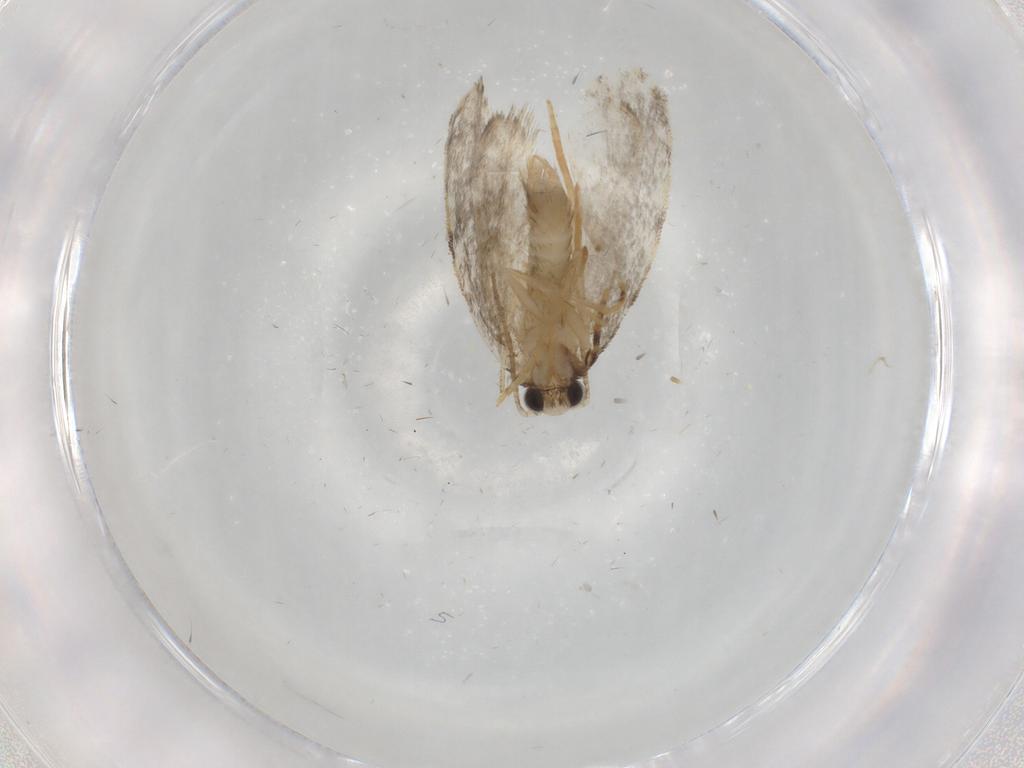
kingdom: Animalia
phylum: Arthropoda
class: Insecta
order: Lepidoptera
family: Psychidae
